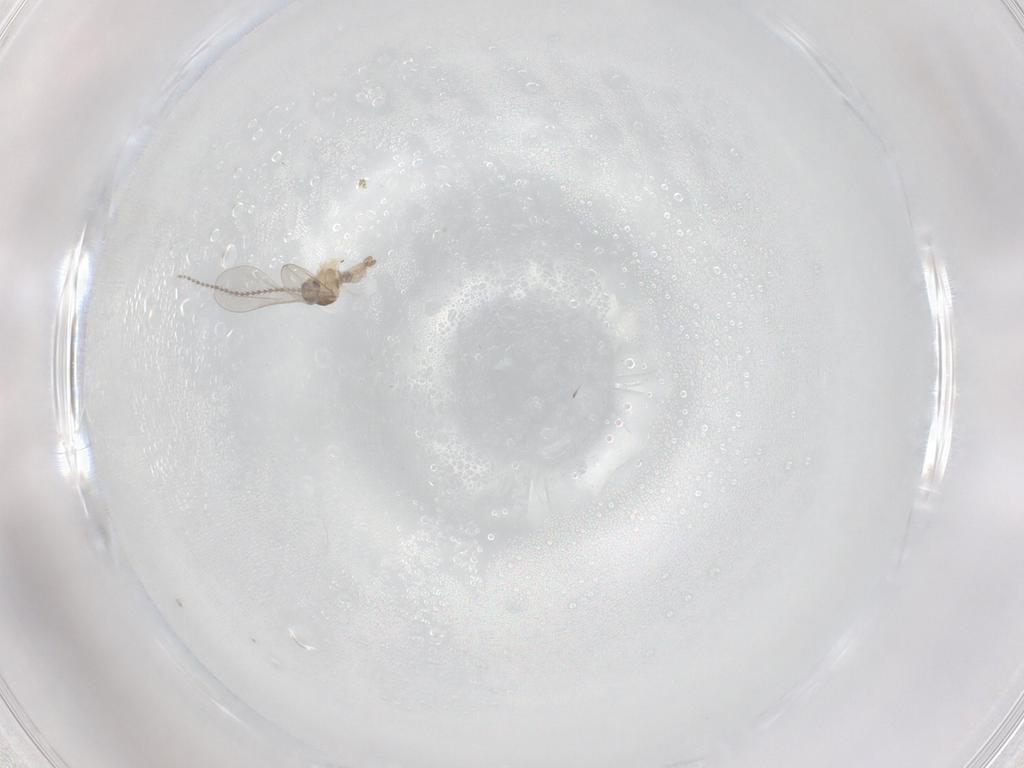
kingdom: Animalia
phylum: Arthropoda
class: Insecta
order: Diptera
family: Cecidomyiidae
